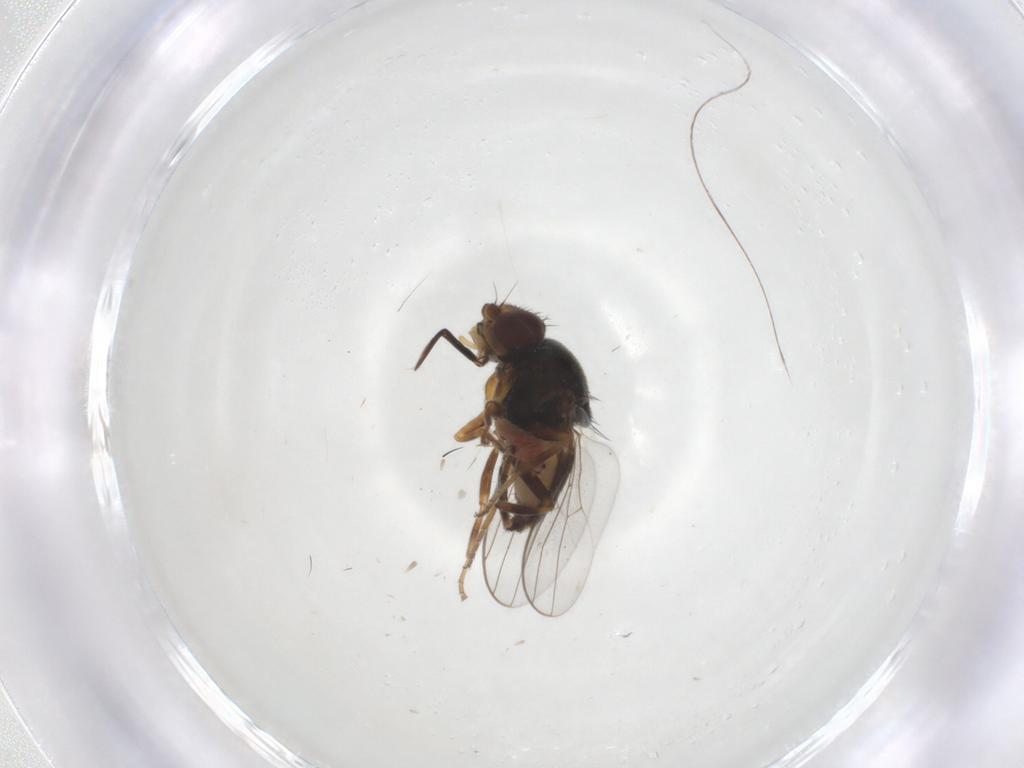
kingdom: Animalia
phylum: Arthropoda
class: Insecta
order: Diptera
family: Chloropidae
